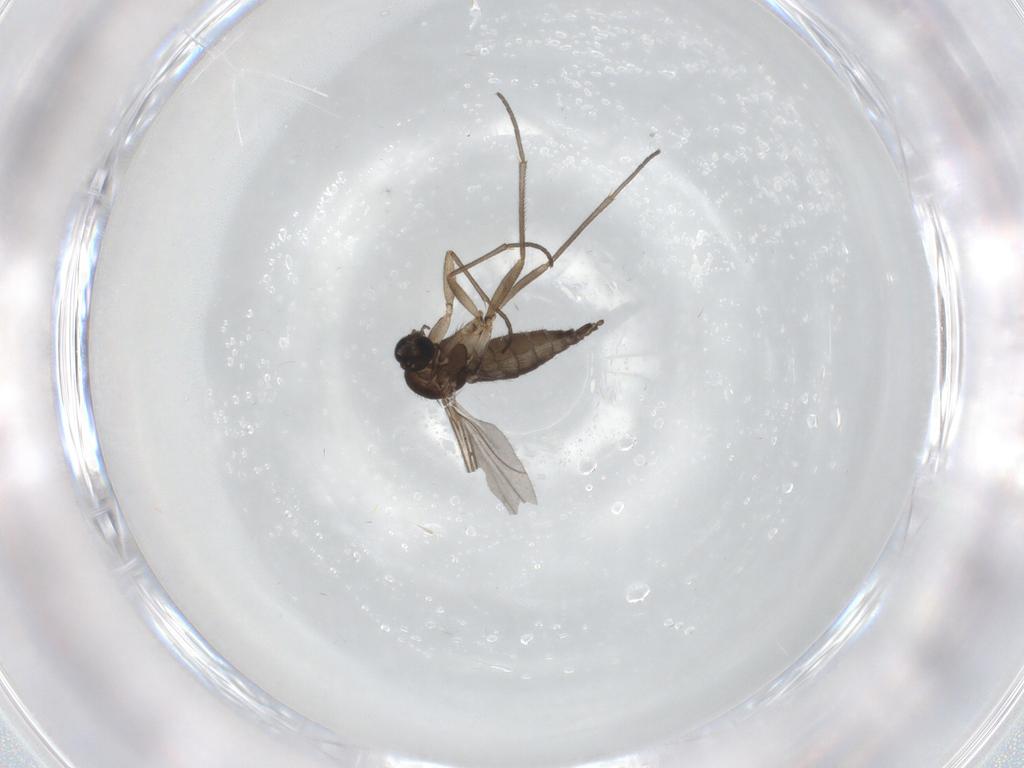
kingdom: Animalia
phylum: Arthropoda
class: Insecta
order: Diptera
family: Sciaridae
